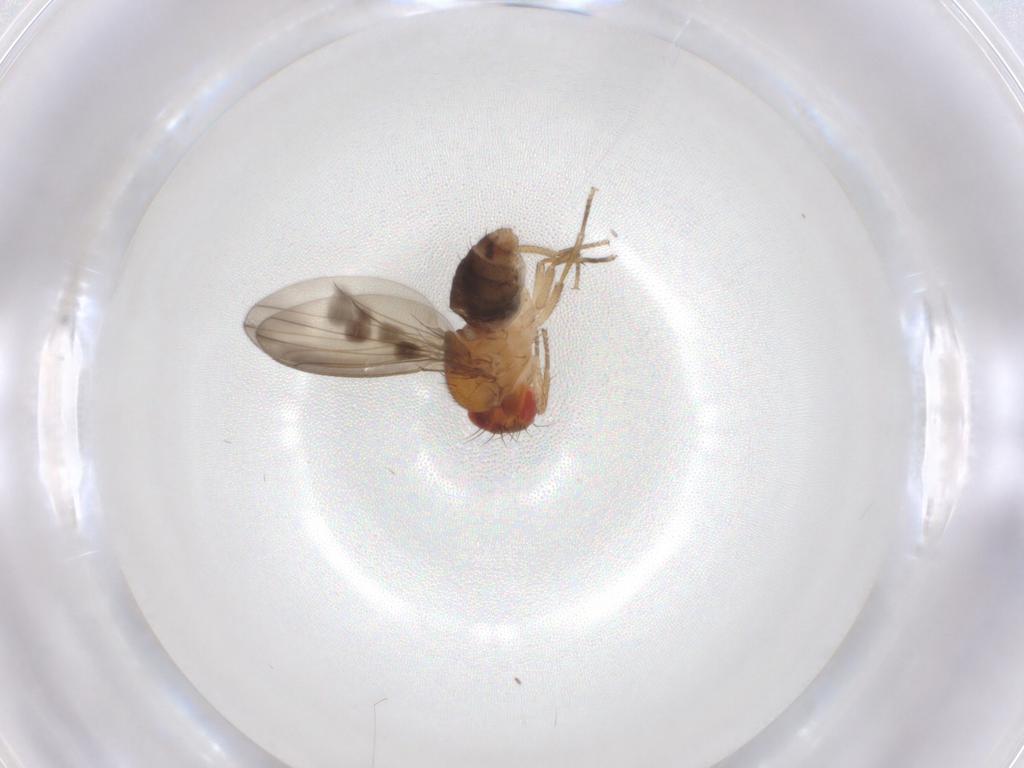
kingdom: Animalia
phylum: Arthropoda
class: Insecta
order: Diptera
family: Drosophilidae
